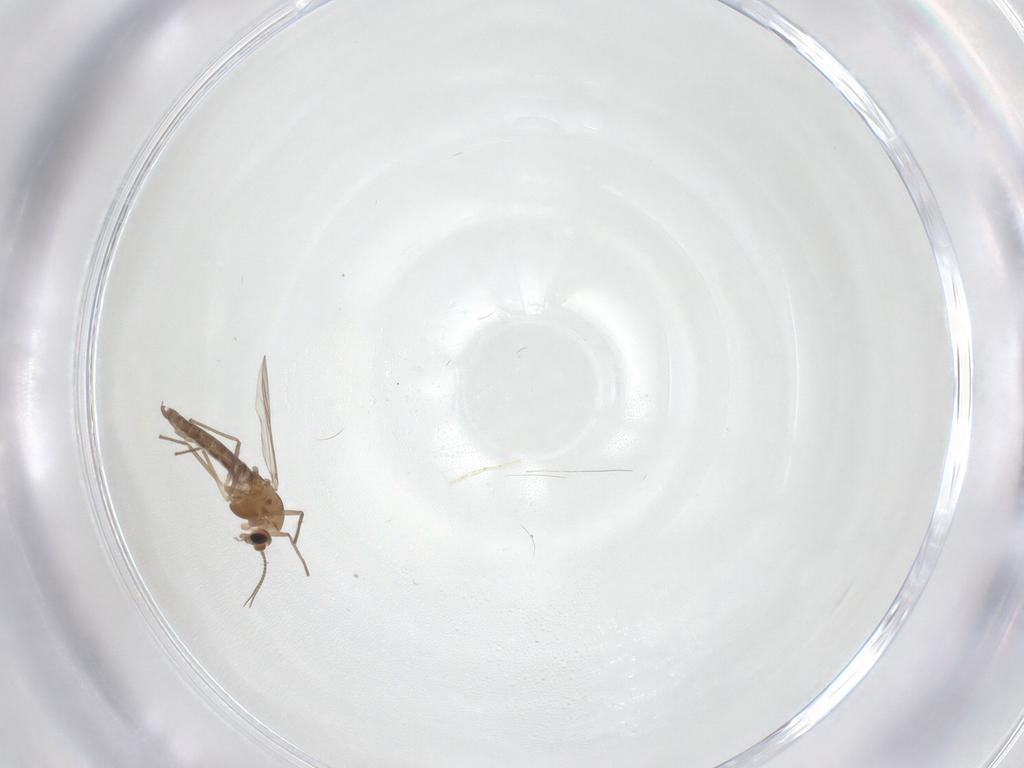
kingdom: Animalia
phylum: Arthropoda
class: Insecta
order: Diptera
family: Chironomidae
